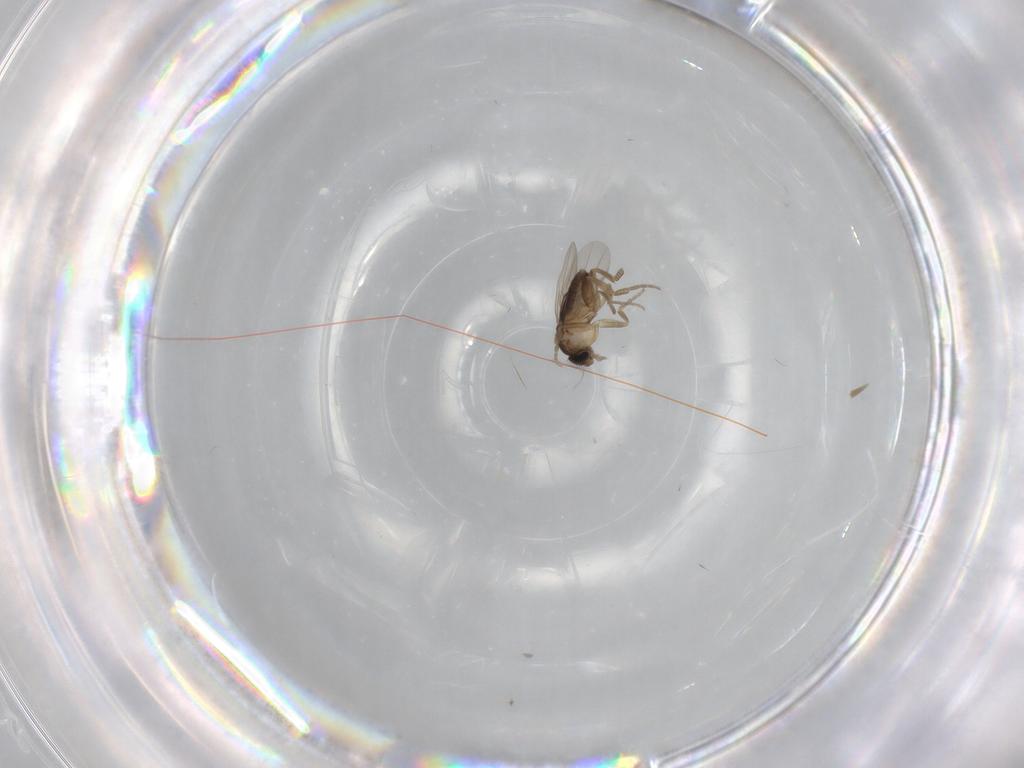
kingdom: Animalia
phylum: Arthropoda
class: Insecta
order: Diptera
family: Phoridae
